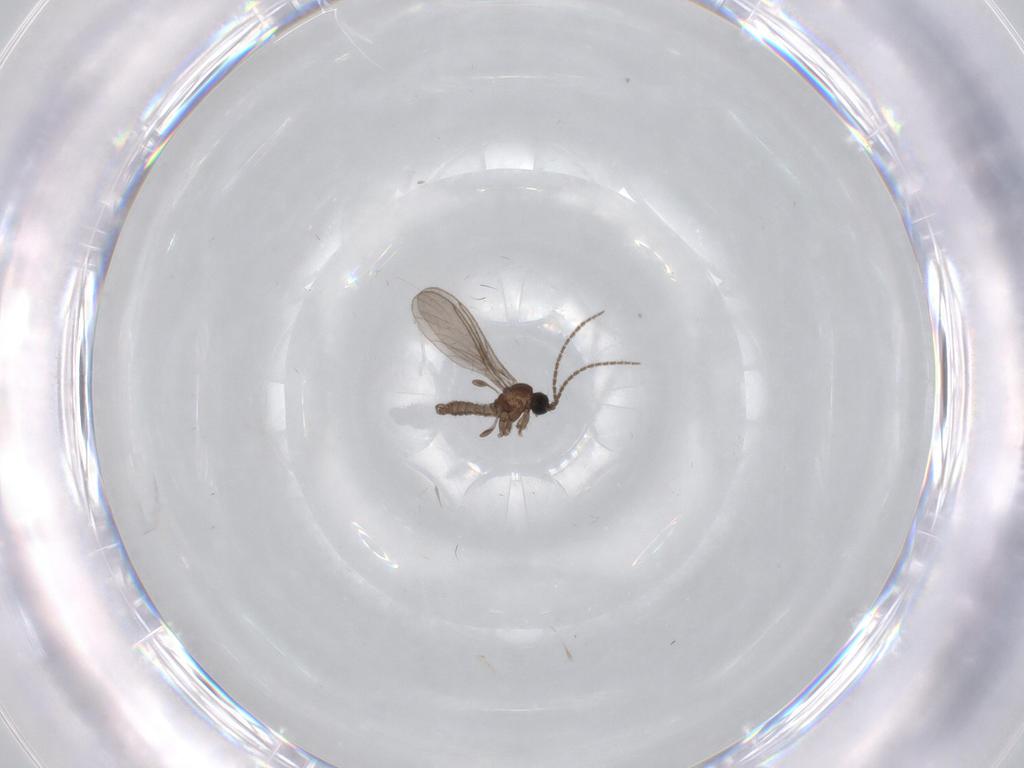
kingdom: Animalia
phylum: Arthropoda
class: Insecta
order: Diptera
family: Sciaridae
